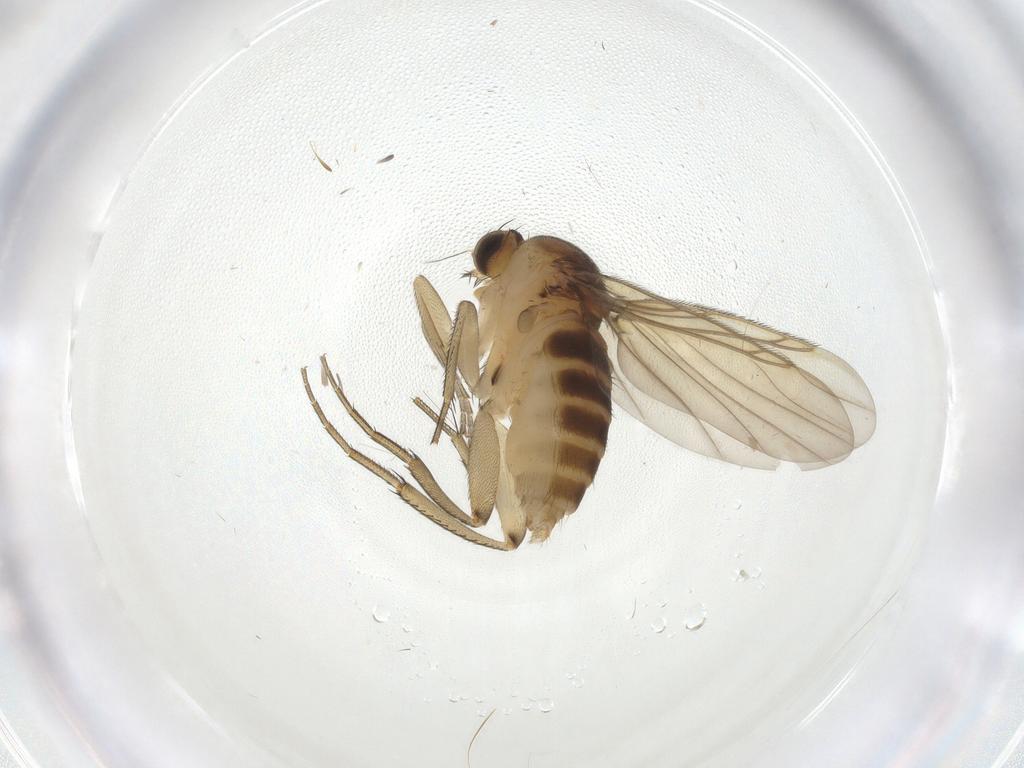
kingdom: Animalia
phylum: Arthropoda
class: Insecta
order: Diptera
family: Phoridae
